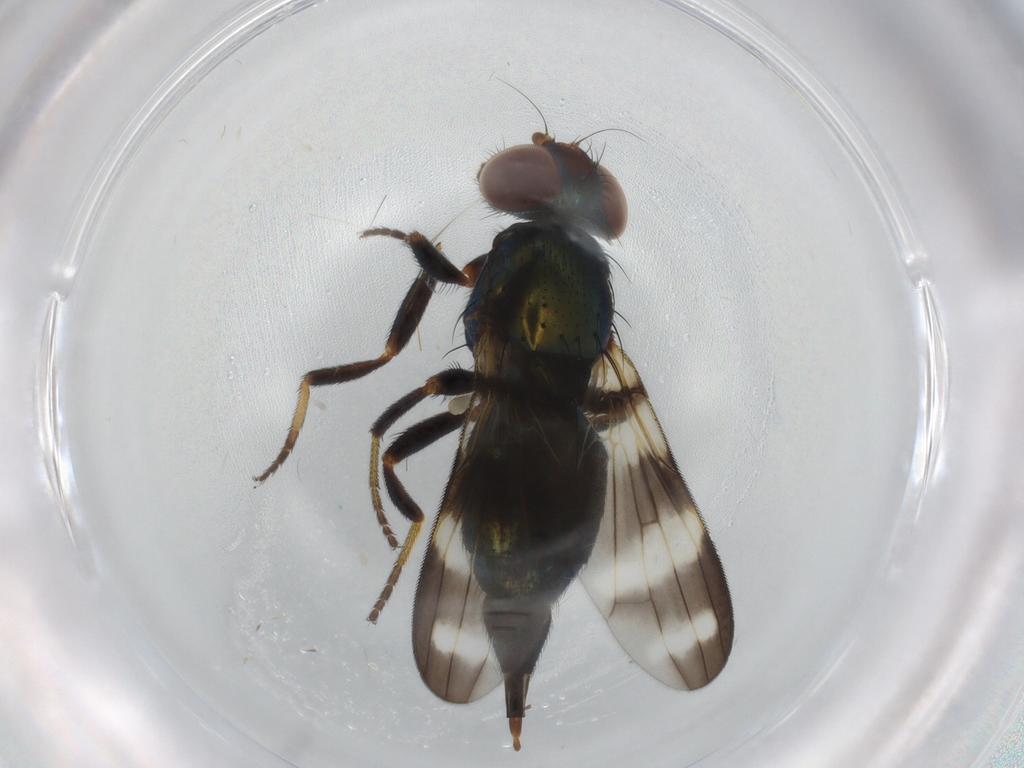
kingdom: Animalia
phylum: Arthropoda
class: Insecta
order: Diptera
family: Ulidiidae
